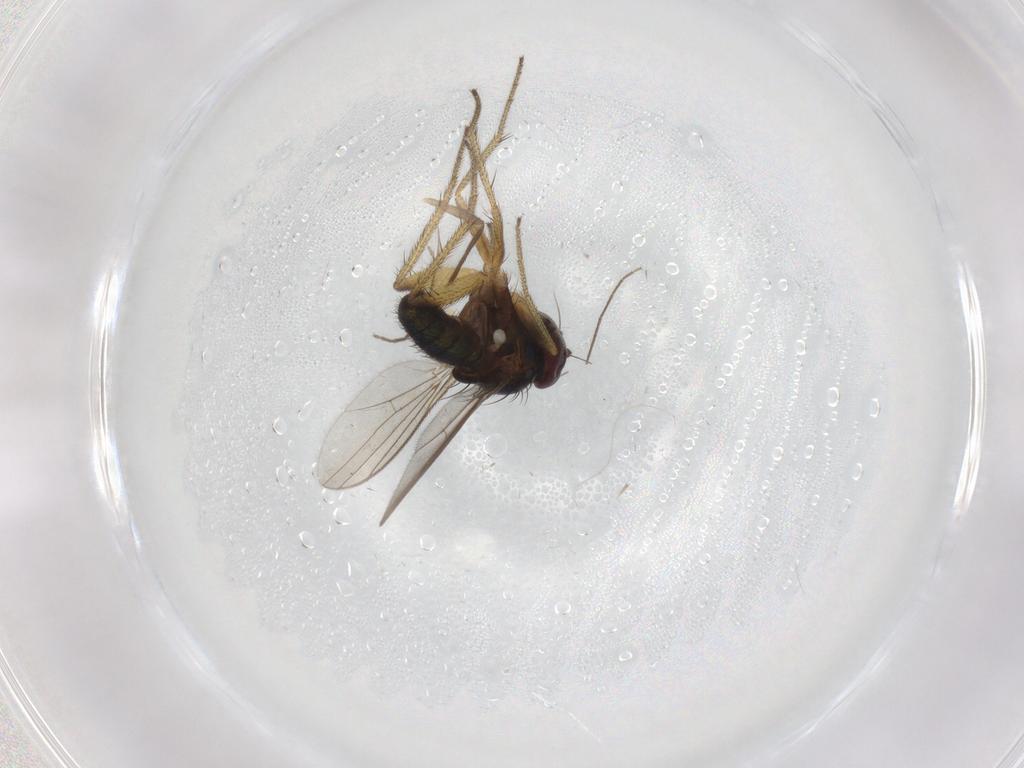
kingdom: Animalia
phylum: Arthropoda
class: Insecta
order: Diptera
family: Chironomidae
